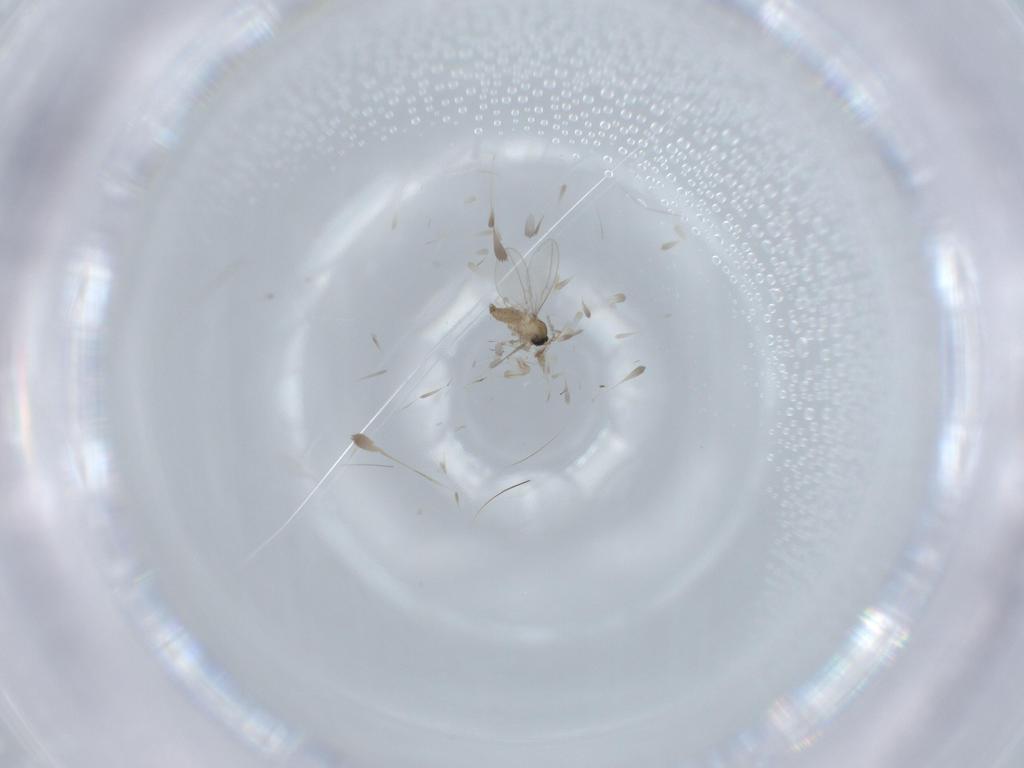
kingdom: Animalia
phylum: Arthropoda
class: Insecta
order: Diptera
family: Cecidomyiidae
